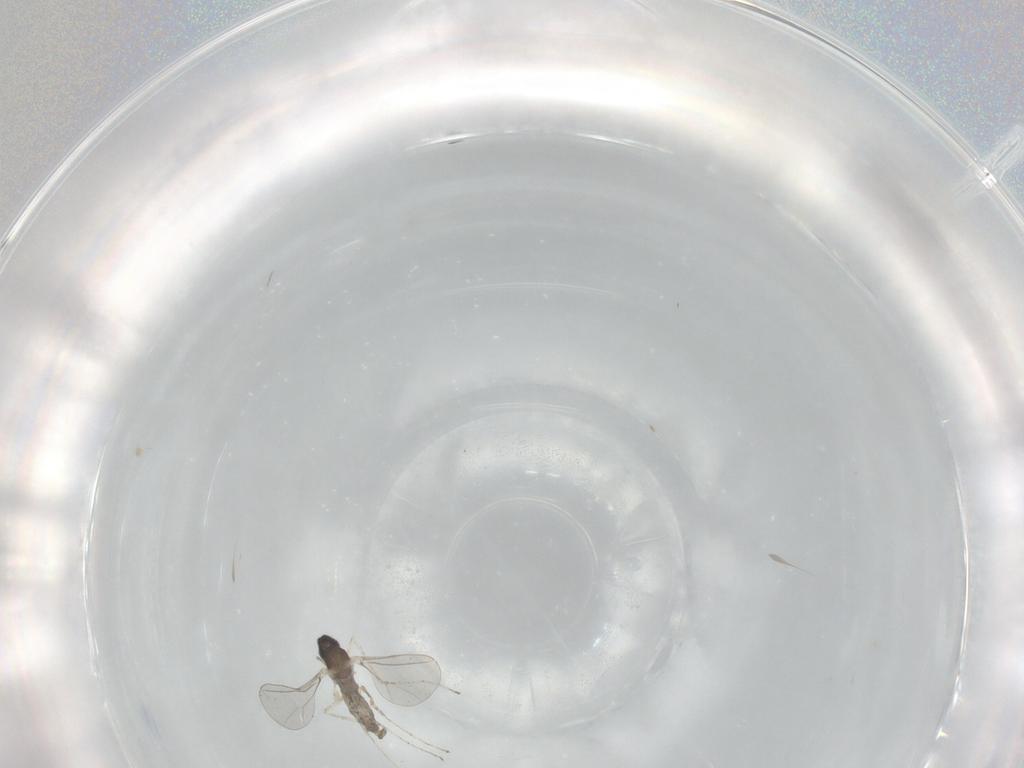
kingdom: Animalia
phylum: Arthropoda
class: Insecta
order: Diptera
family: Cecidomyiidae
